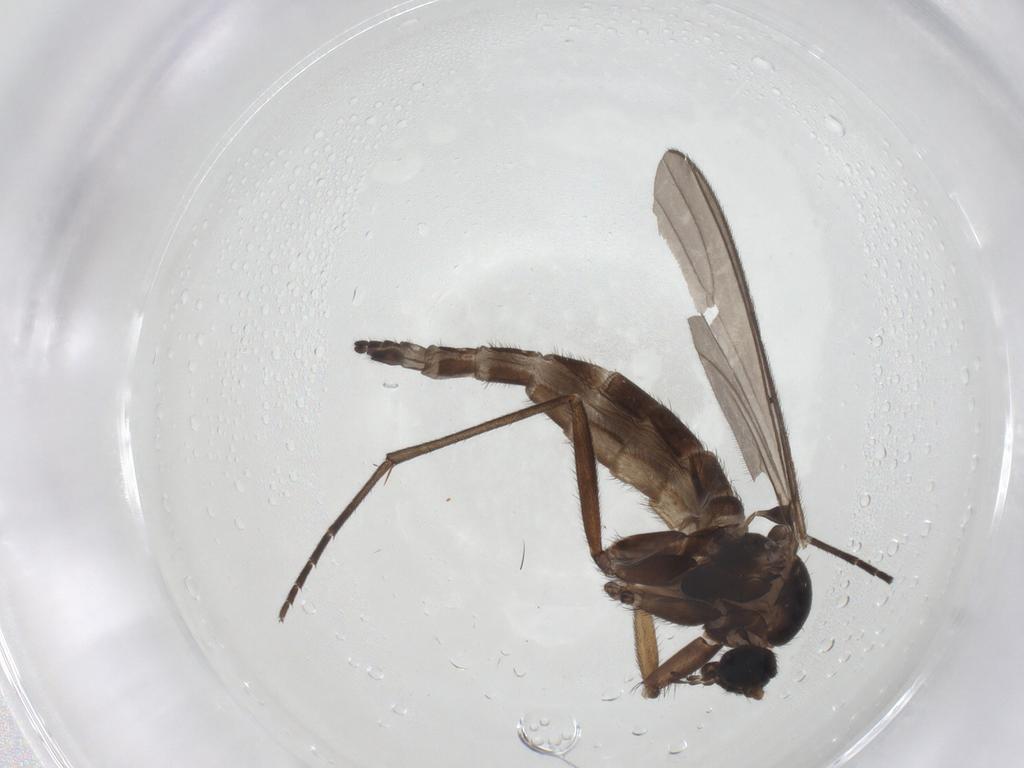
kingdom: Animalia
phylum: Arthropoda
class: Insecta
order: Diptera
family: Sciaridae
